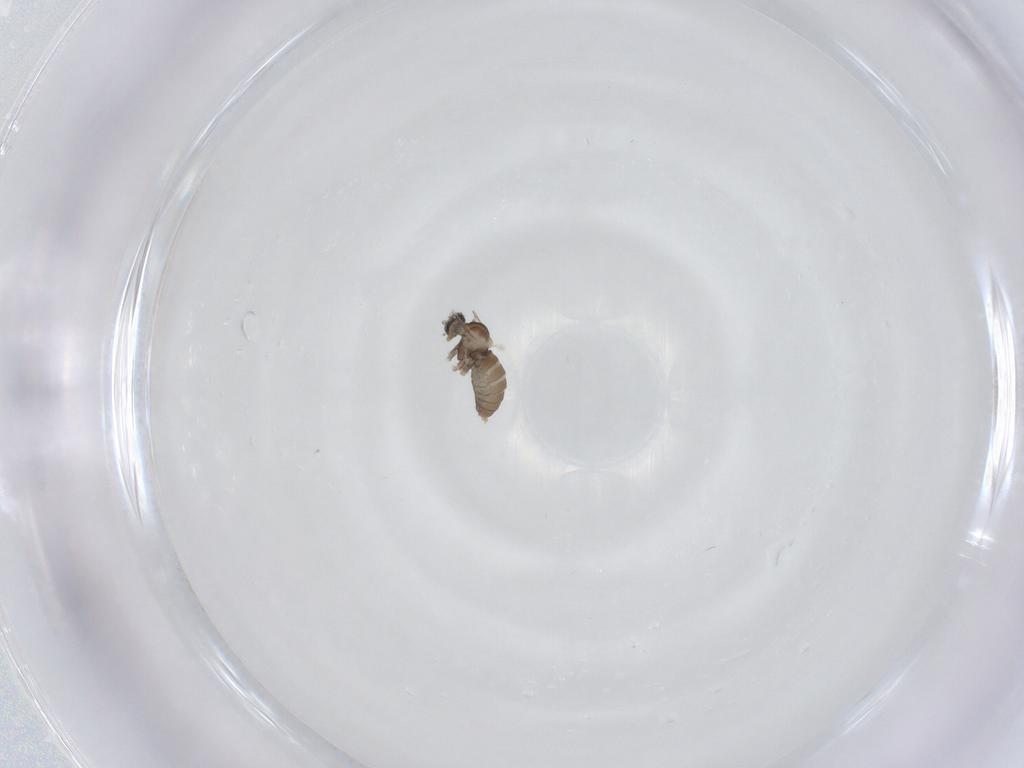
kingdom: Animalia
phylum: Arthropoda
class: Insecta
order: Diptera
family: Cecidomyiidae
